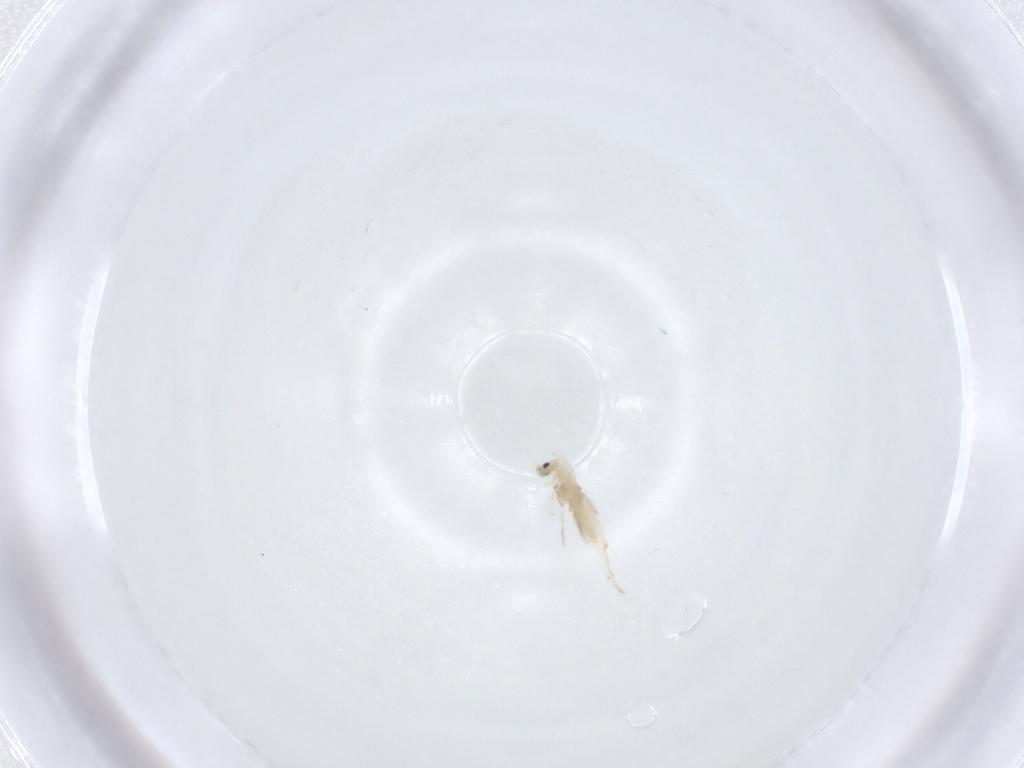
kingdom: Animalia
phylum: Arthropoda
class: Collembola
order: Entomobryomorpha
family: Entomobryidae
